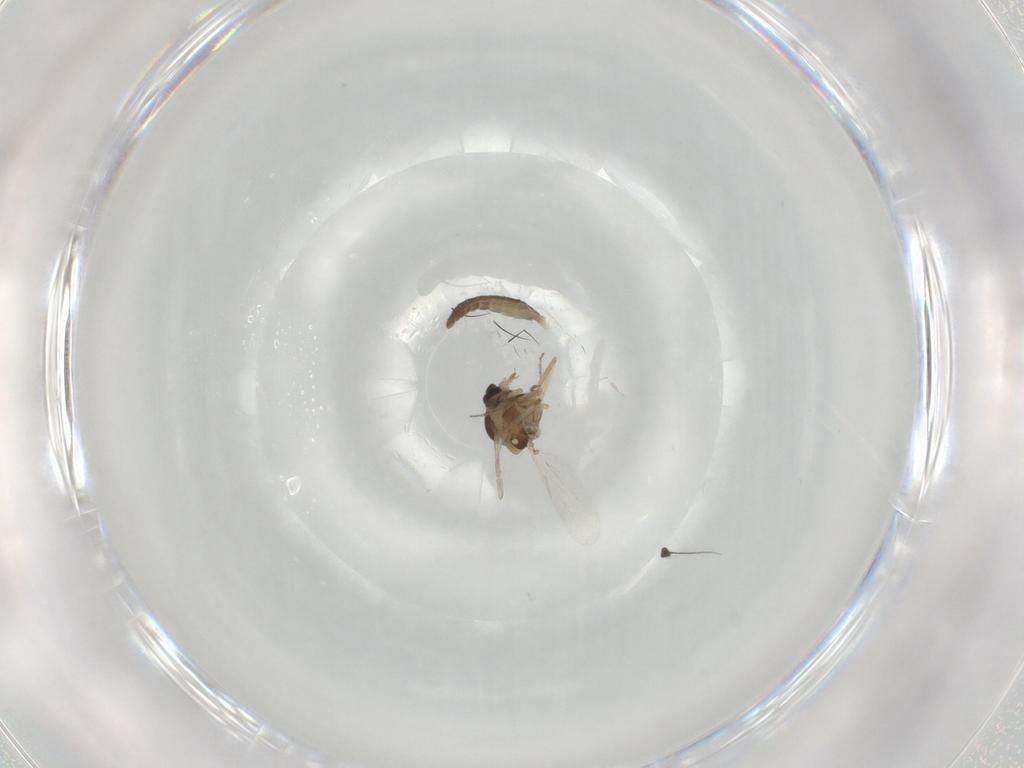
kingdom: Animalia
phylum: Arthropoda
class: Insecta
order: Diptera
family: Ceratopogonidae
